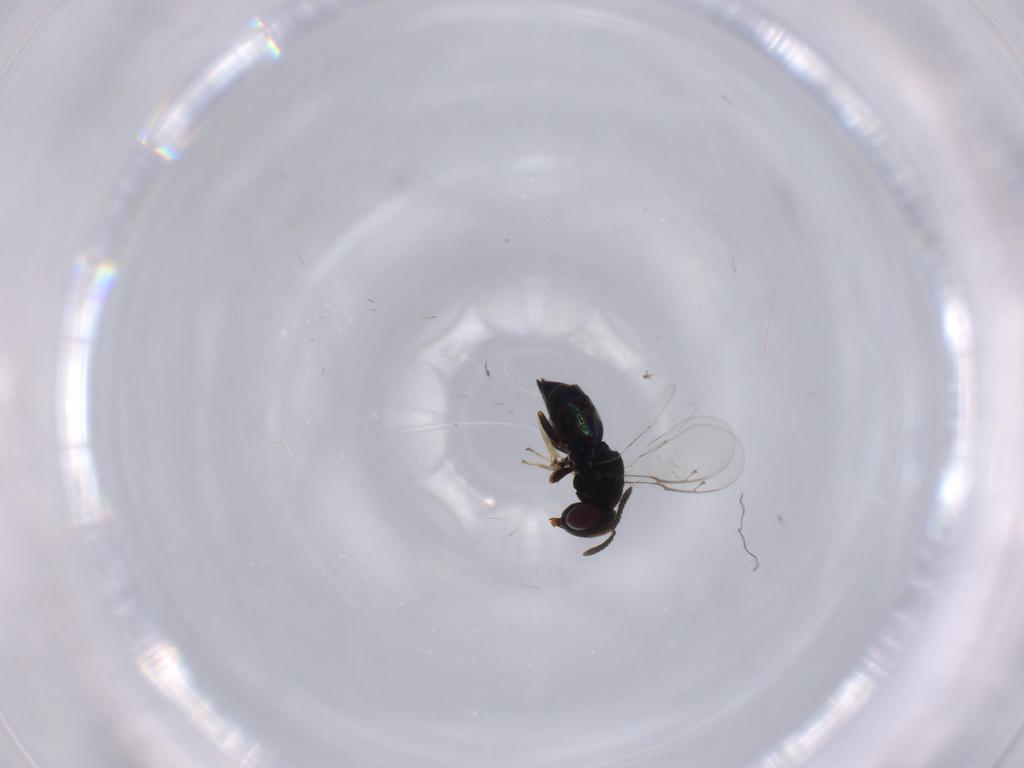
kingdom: Animalia
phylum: Arthropoda
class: Insecta
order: Hymenoptera
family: Pteromalidae
